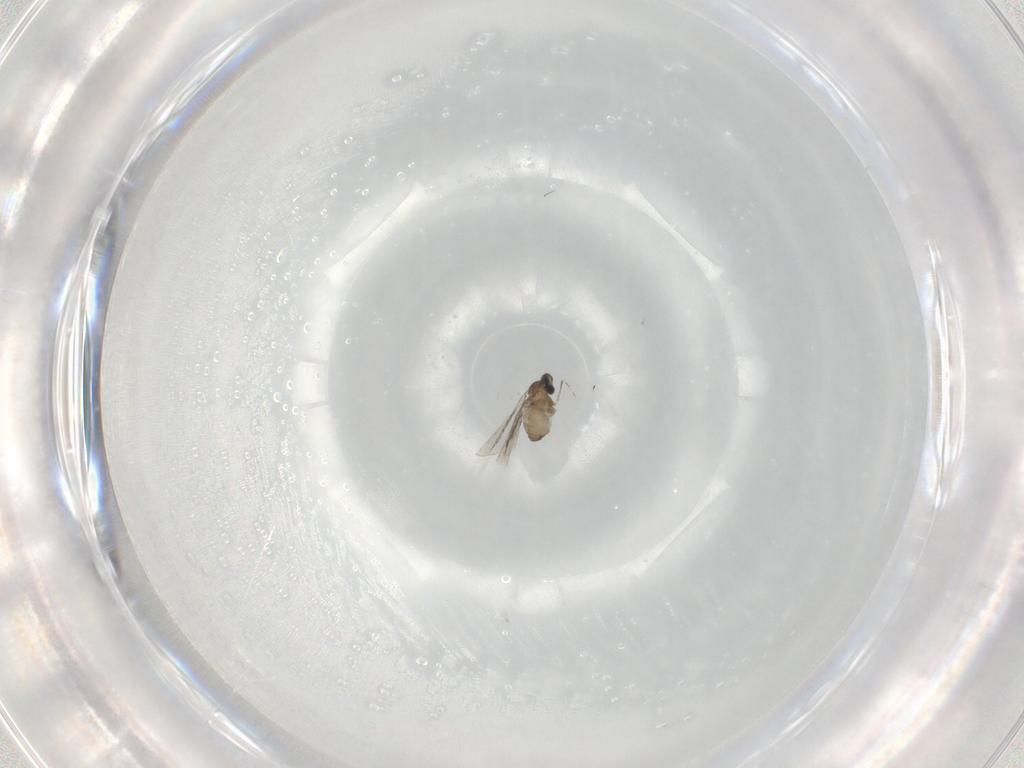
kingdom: Animalia
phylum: Arthropoda
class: Insecta
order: Diptera
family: Cecidomyiidae
